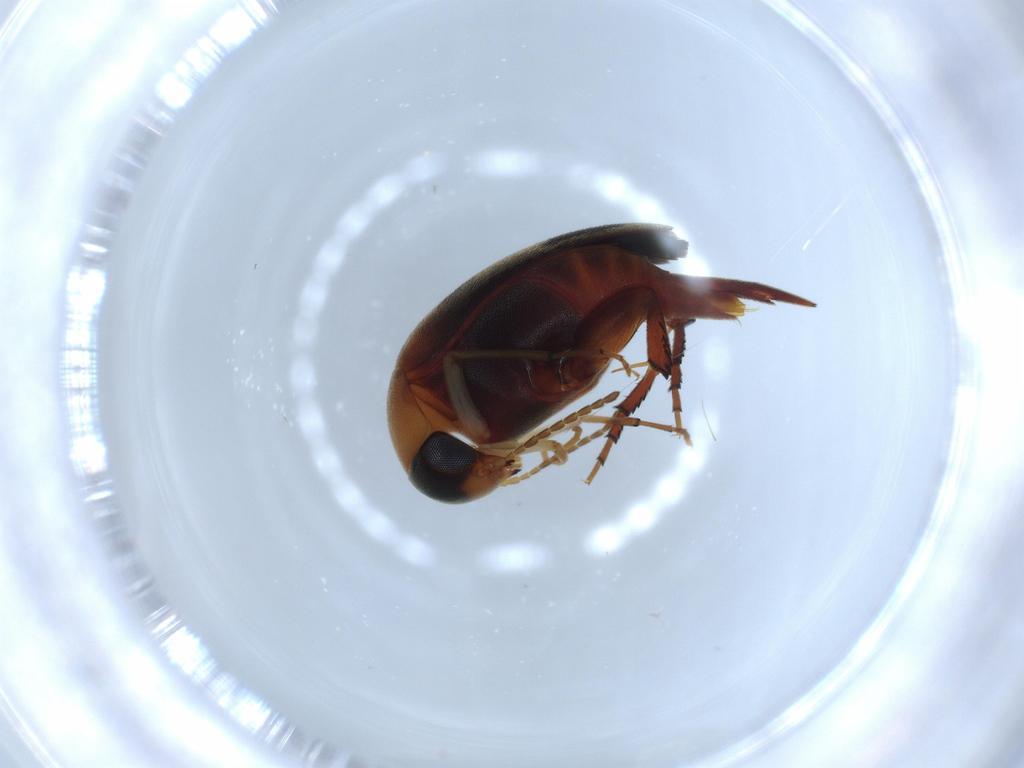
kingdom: Animalia
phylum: Arthropoda
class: Insecta
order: Coleoptera
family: Mordellidae
